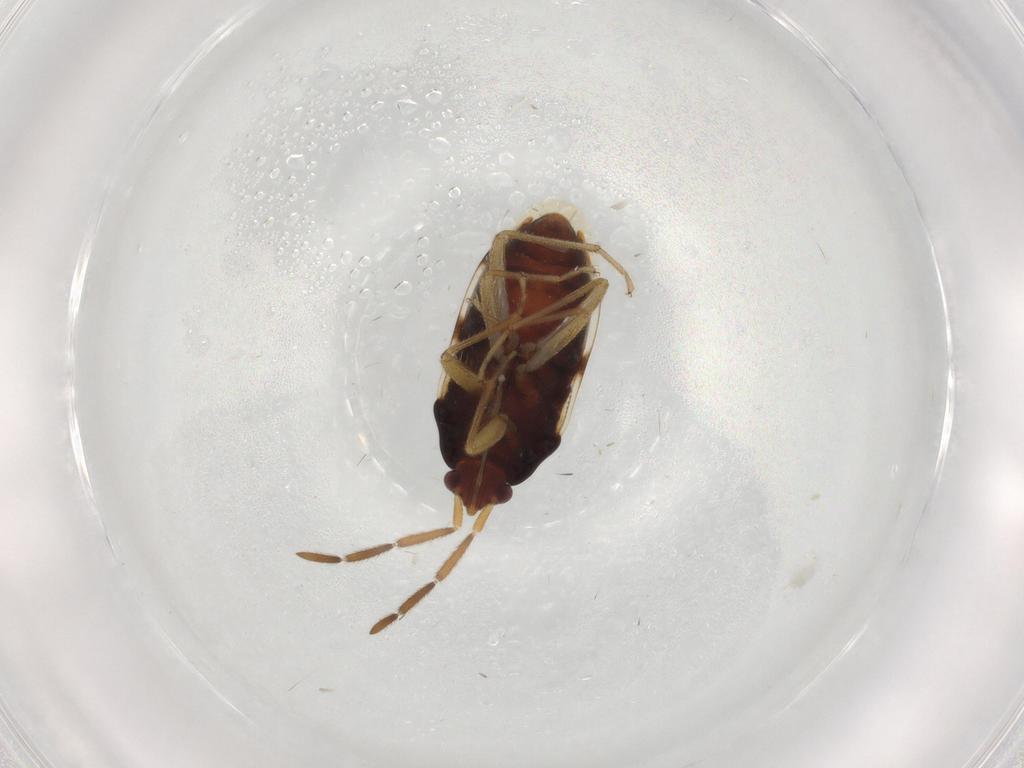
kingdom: Animalia
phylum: Arthropoda
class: Insecta
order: Hemiptera
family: Rhyparochromidae
